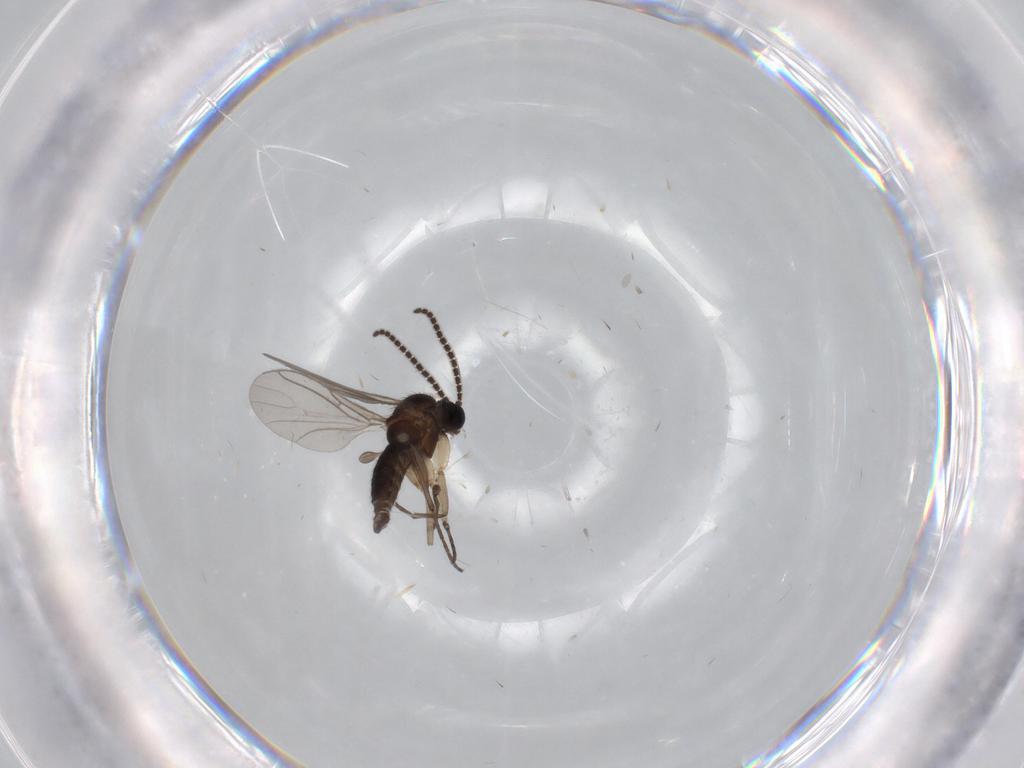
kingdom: Animalia
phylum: Arthropoda
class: Insecta
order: Diptera
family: Sciaridae
